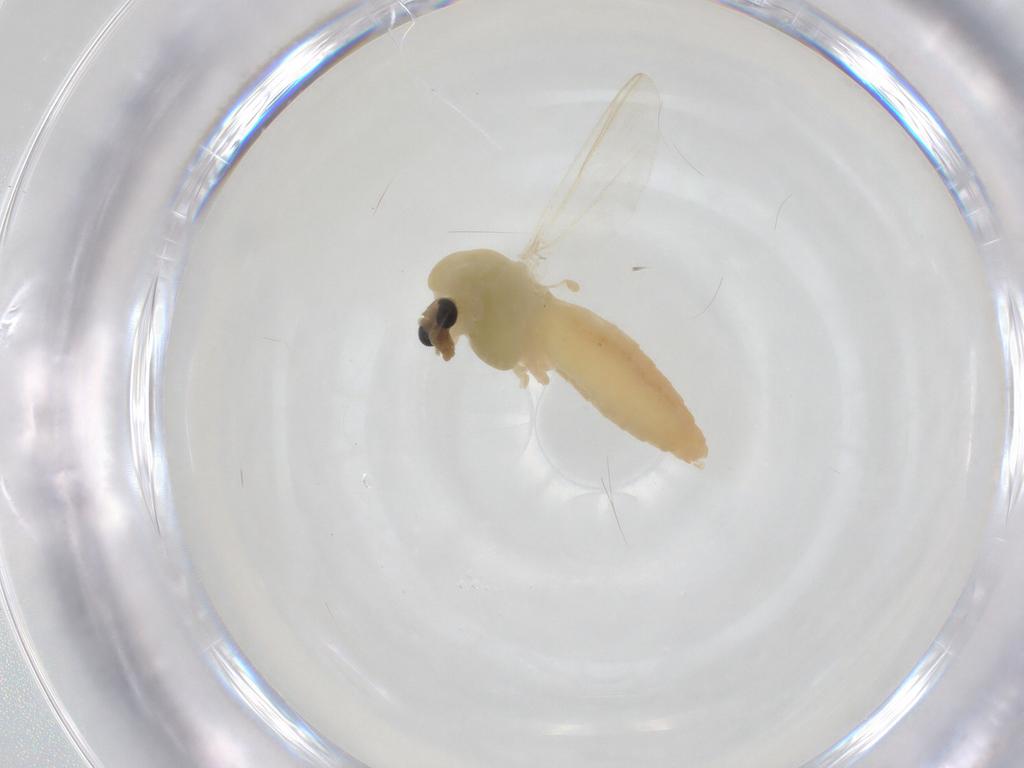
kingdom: Animalia
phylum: Arthropoda
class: Insecta
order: Diptera
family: Chironomidae
